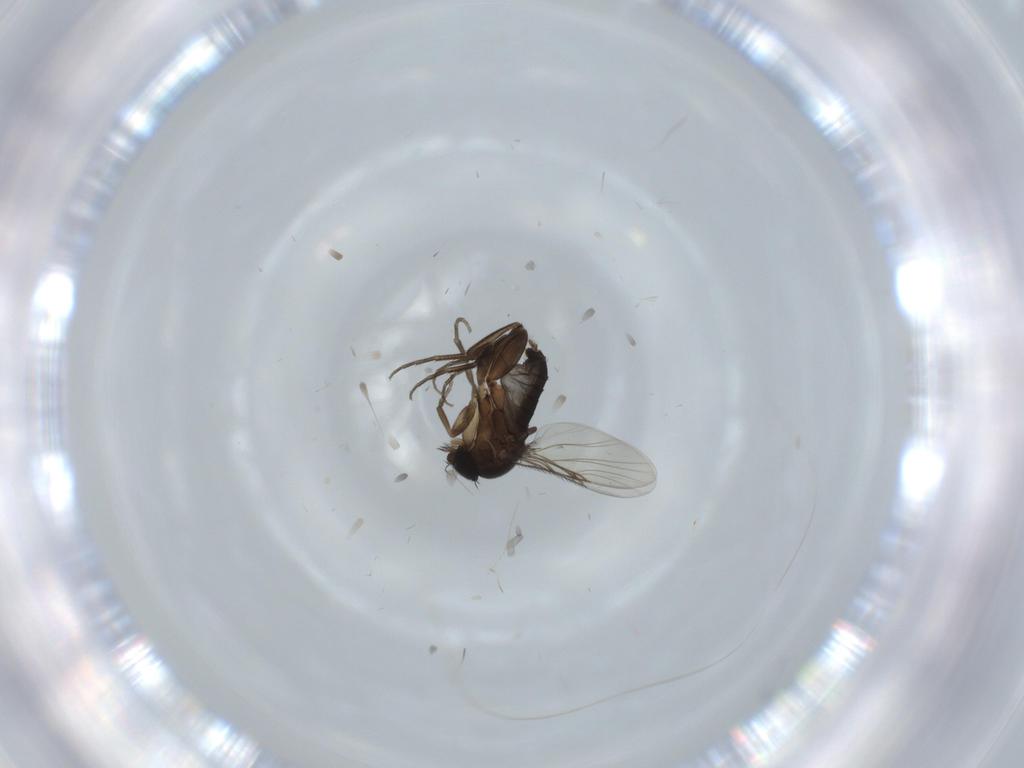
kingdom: Animalia
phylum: Arthropoda
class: Insecta
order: Diptera
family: Phoridae
